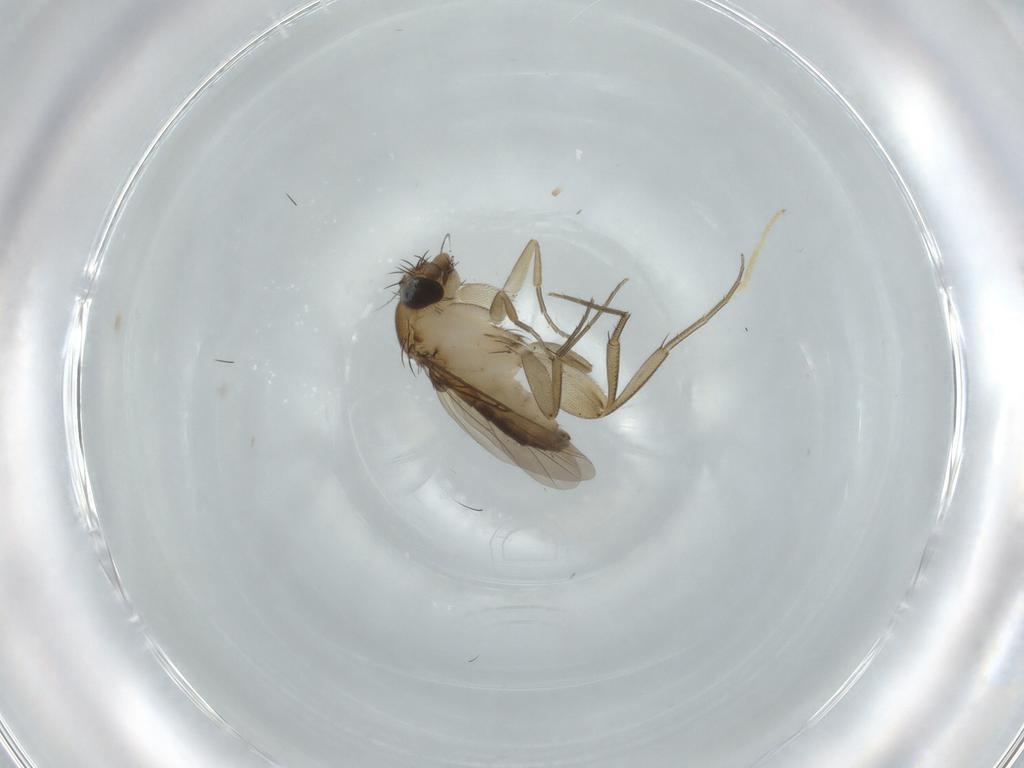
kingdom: Animalia
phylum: Arthropoda
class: Insecta
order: Diptera
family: Phoridae
